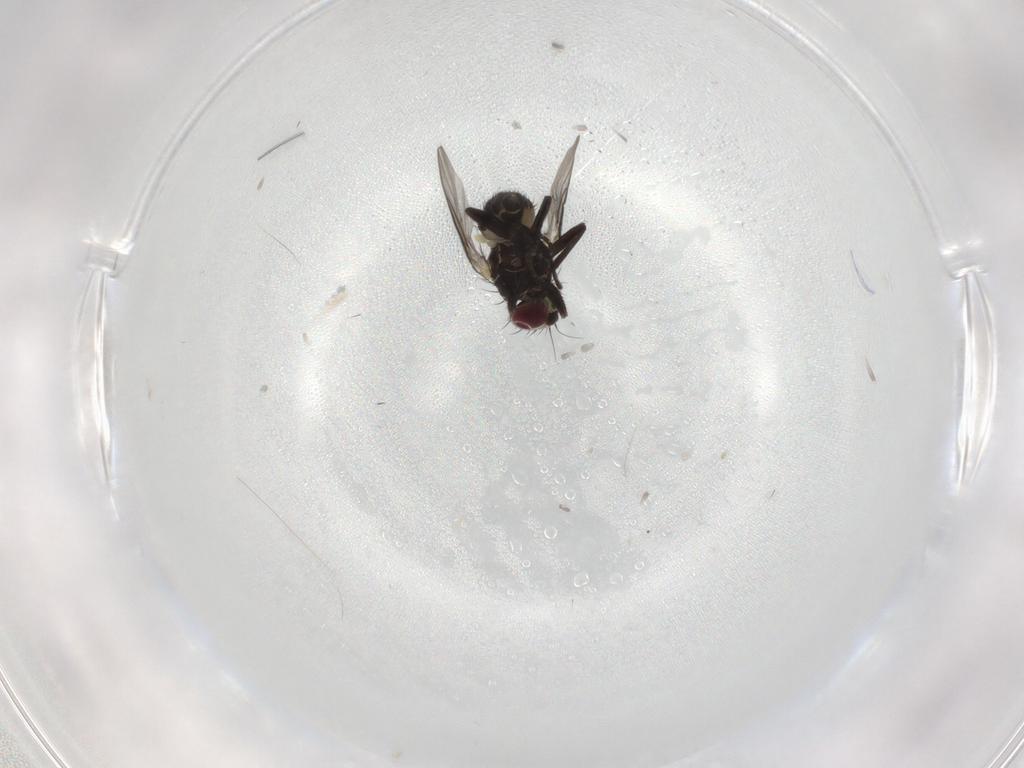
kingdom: Animalia
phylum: Arthropoda
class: Insecta
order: Diptera
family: Agromyzidae
